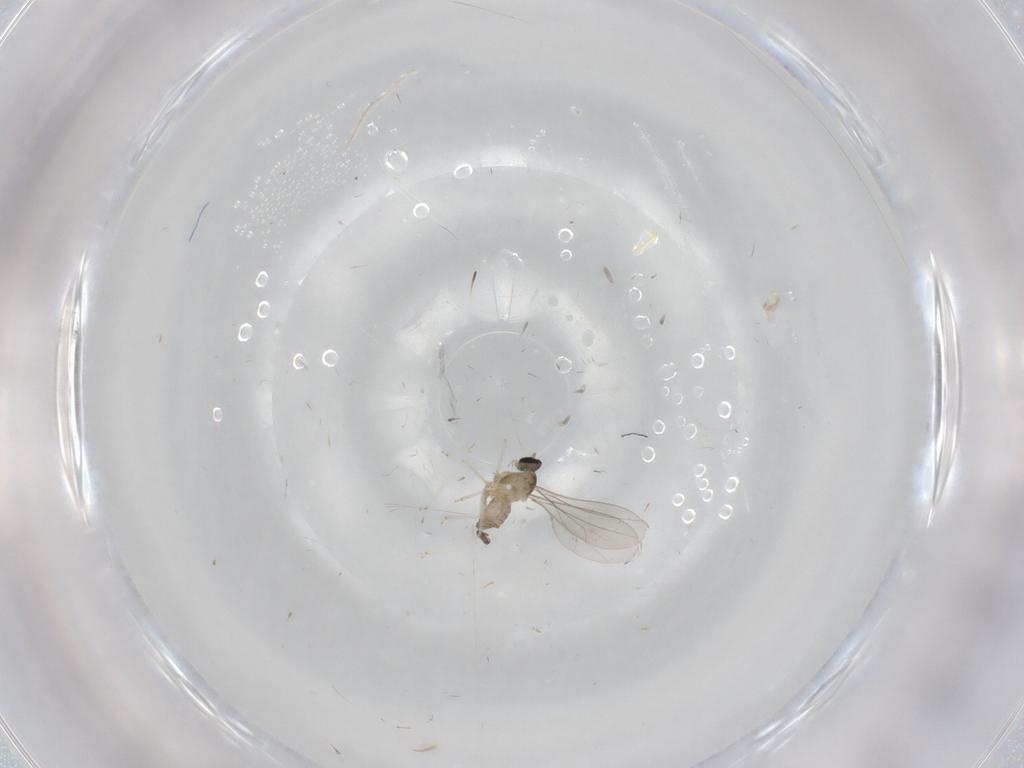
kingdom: Animalia
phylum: Arthropoda
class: Insecta
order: Diptera
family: Cecidomyiidae
